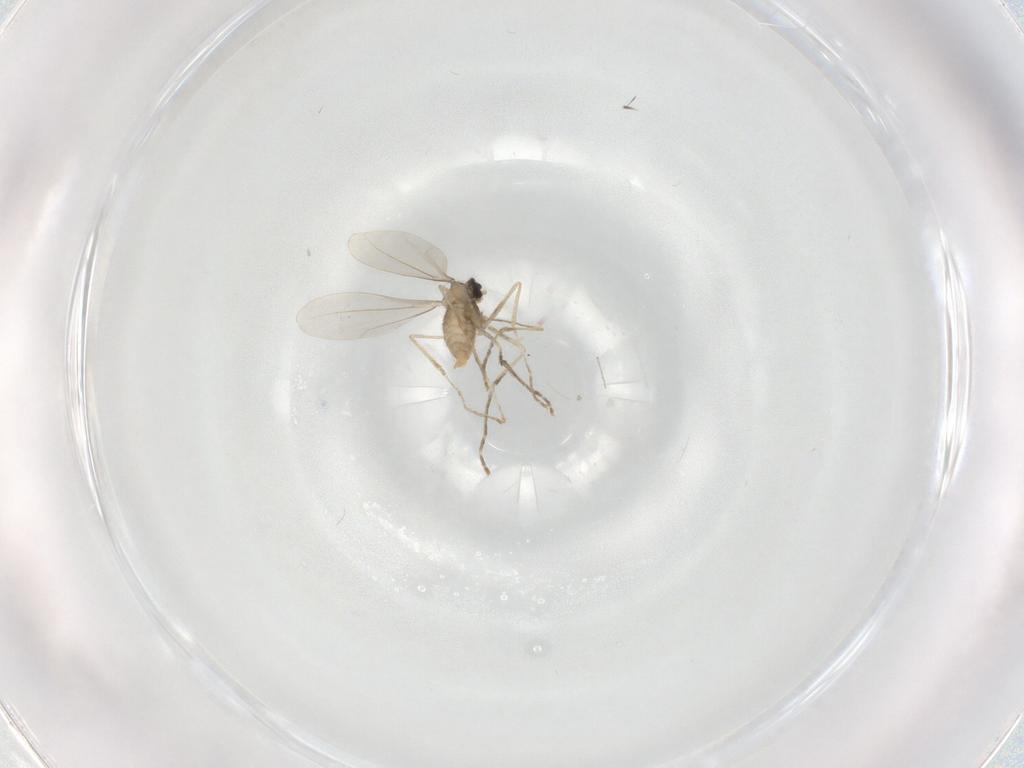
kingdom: Animalia
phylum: Arthropoda
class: Insecta
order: Diptera
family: Cecidomyiidae
